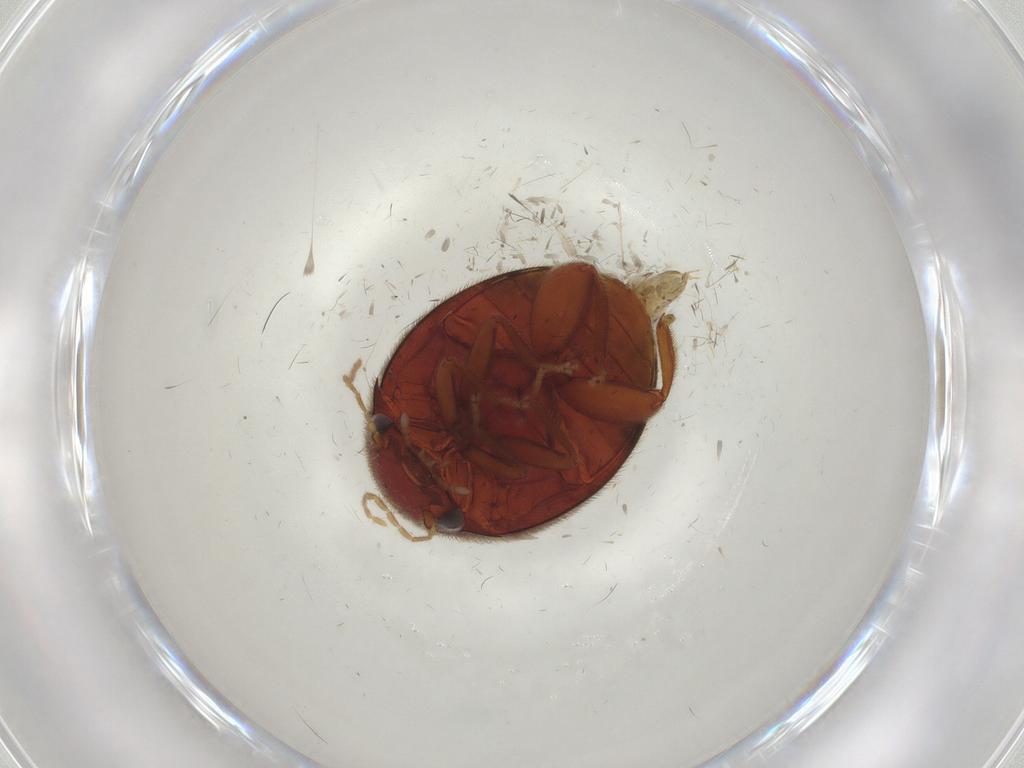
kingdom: Animalia
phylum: Arthropoda
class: Insecta
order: Coleoptera
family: Scirtidae
